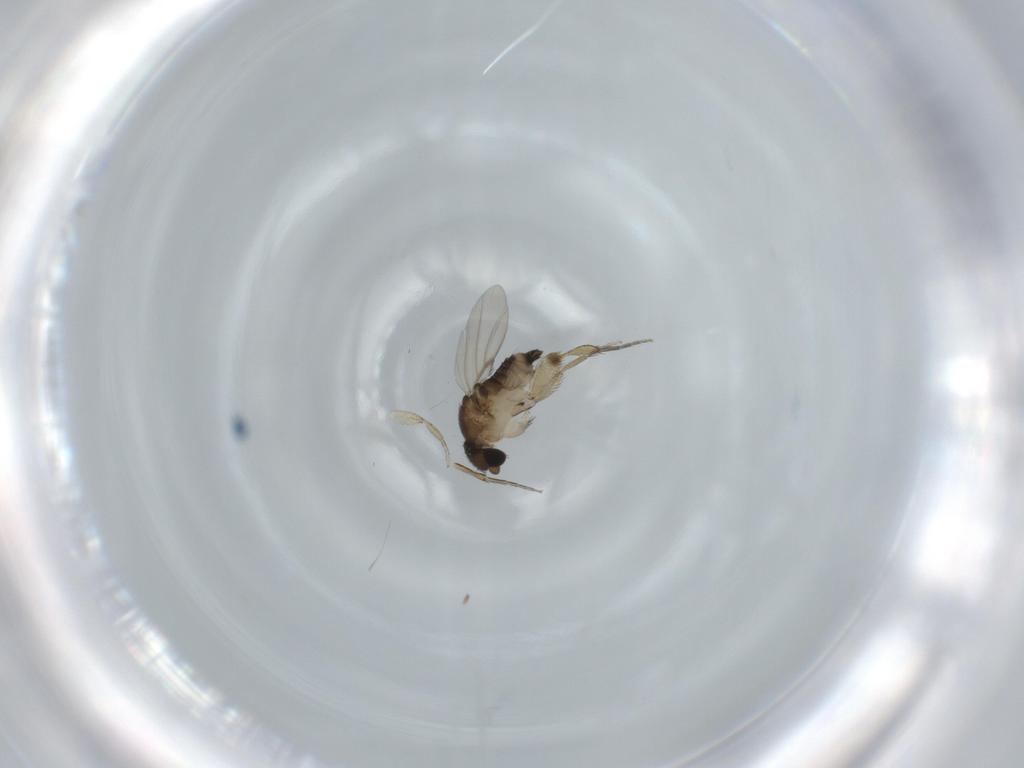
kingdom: Animalia
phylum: Arthropoda
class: Insecta
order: Diptera
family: Phoridae
